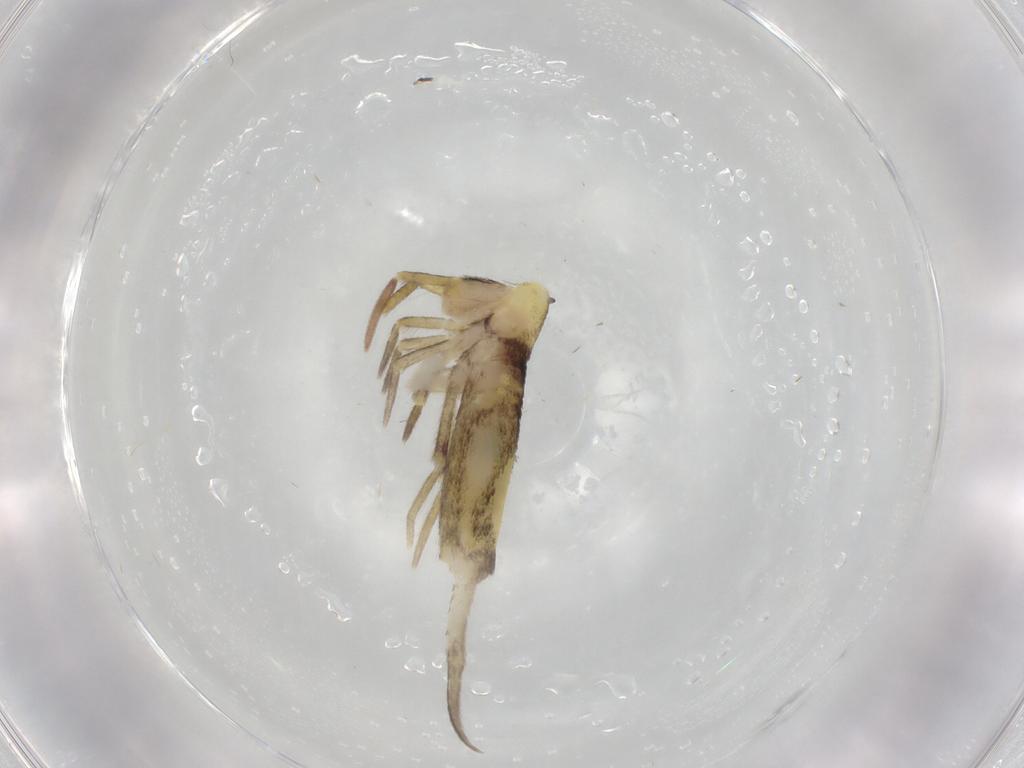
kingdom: Animalia
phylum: Arthropoda
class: Collembola
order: Entomobryomorpha
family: Entomobryidae
